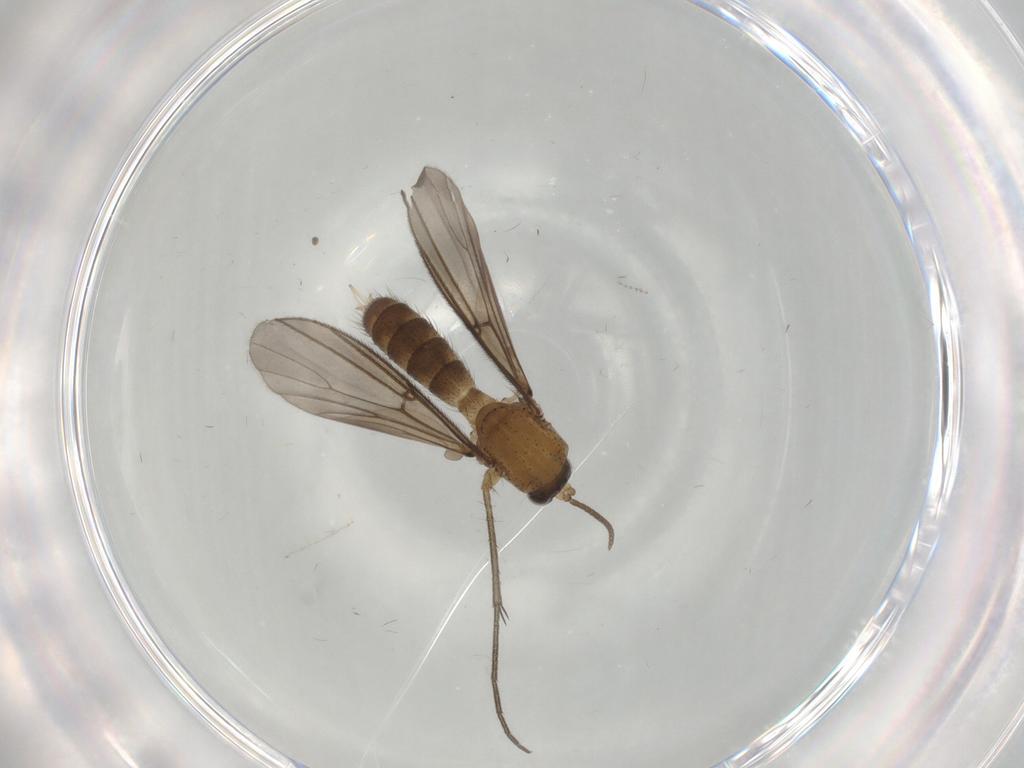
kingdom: Animalia
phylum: Arthropoda
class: Insecta
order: Diptera
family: Mycetophilidae
